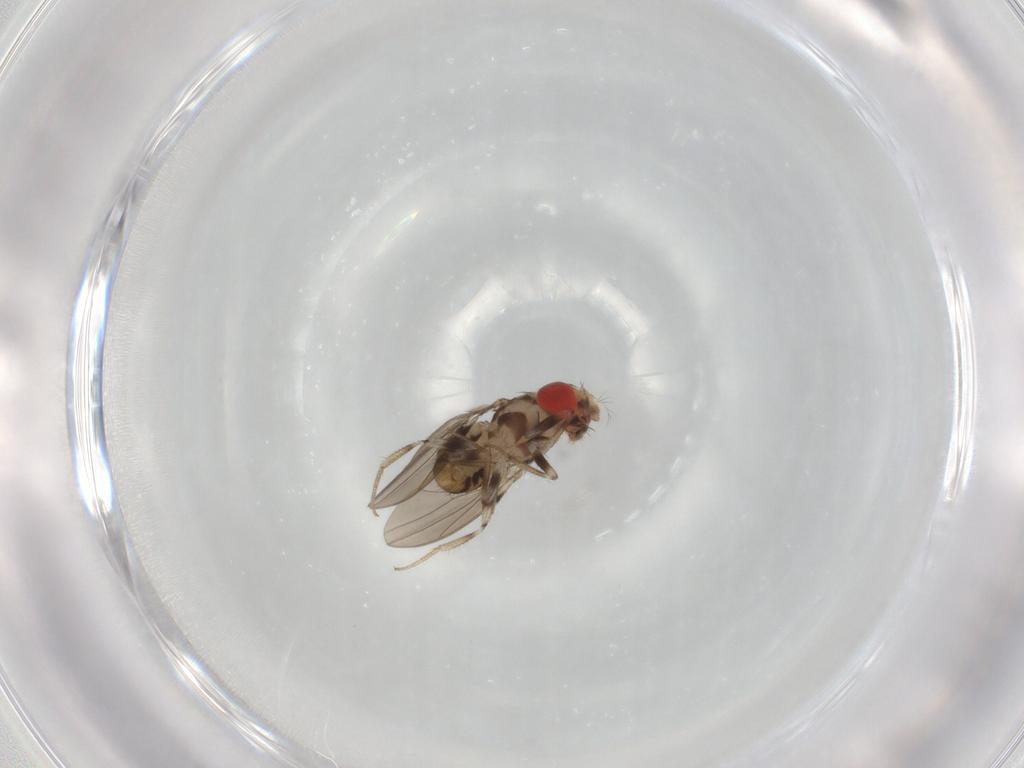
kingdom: Animalia
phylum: Arthropoda
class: Insecta
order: Diptera
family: Drosophilidae
